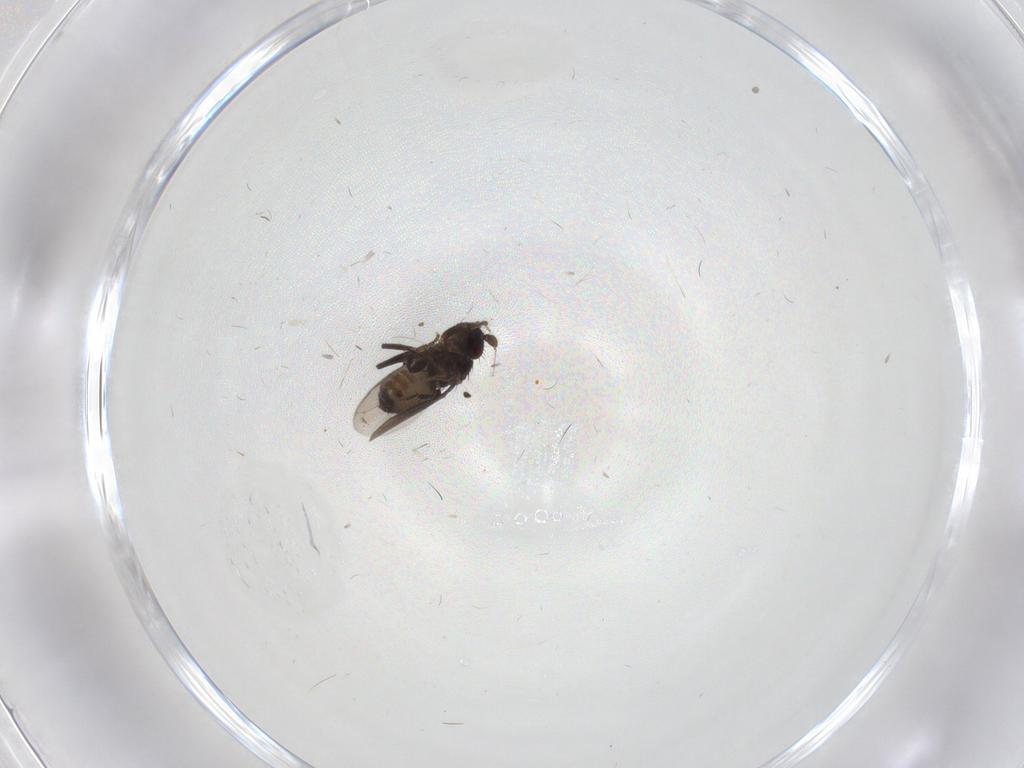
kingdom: Animalia
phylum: Arthropoda
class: Insecta
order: Diptera
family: Sphaeroceridae
